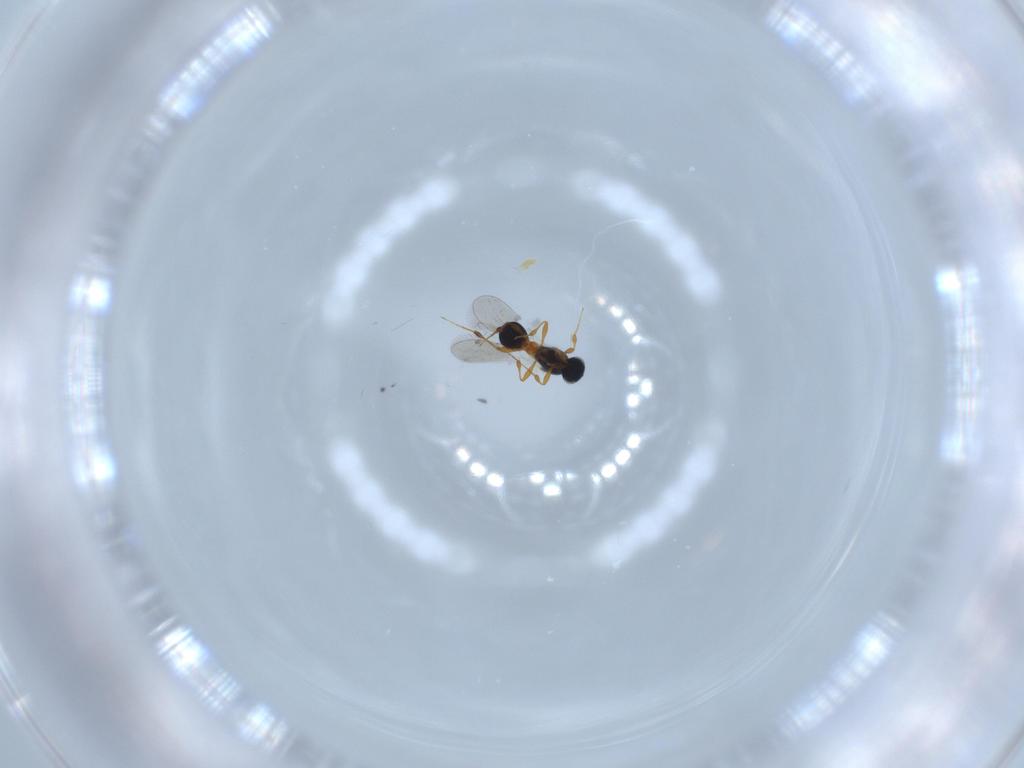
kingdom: Animalia
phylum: Arthropoda
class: Insecta
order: Hymenoptera
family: Platygastridae
